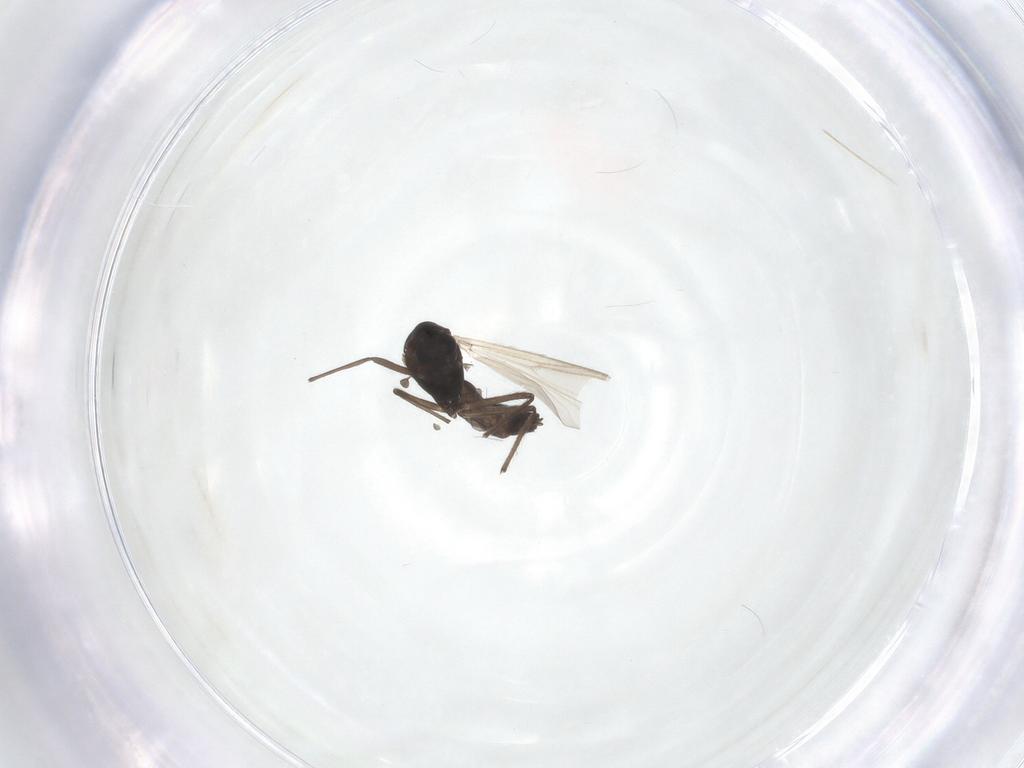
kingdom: Animalia
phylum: Arthropoda
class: Insecta
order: Diptera
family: Chironomidae
